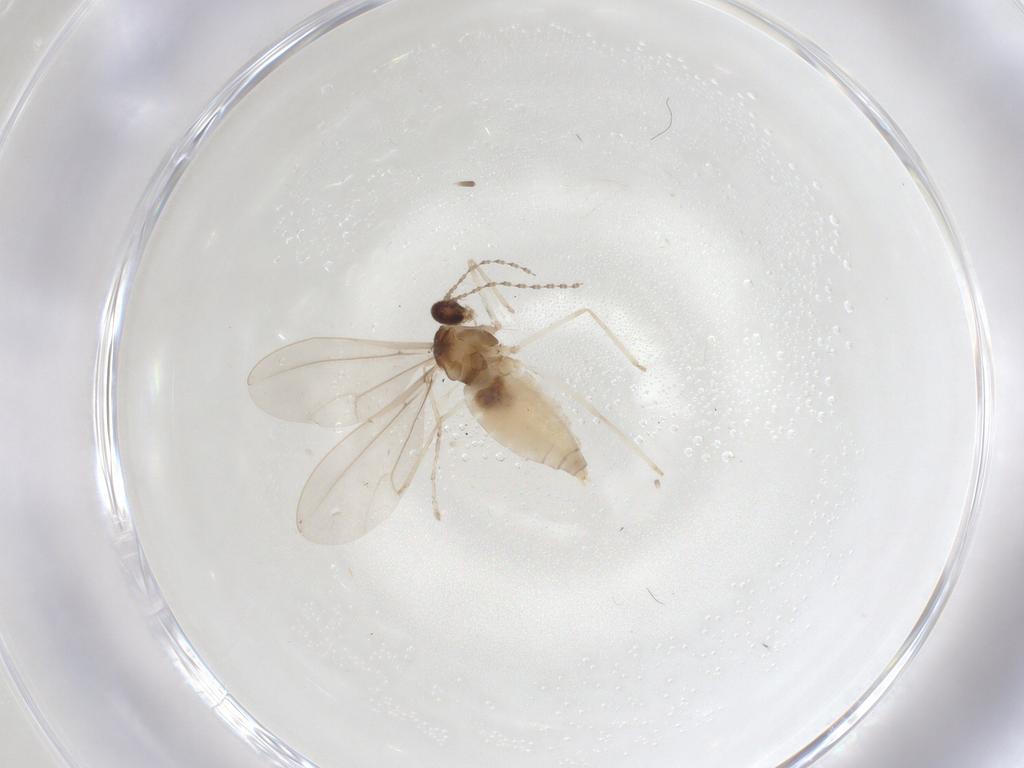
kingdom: Animalia
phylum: Arthropoda
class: Insecta
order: Diptera
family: Cecidomyiidae
